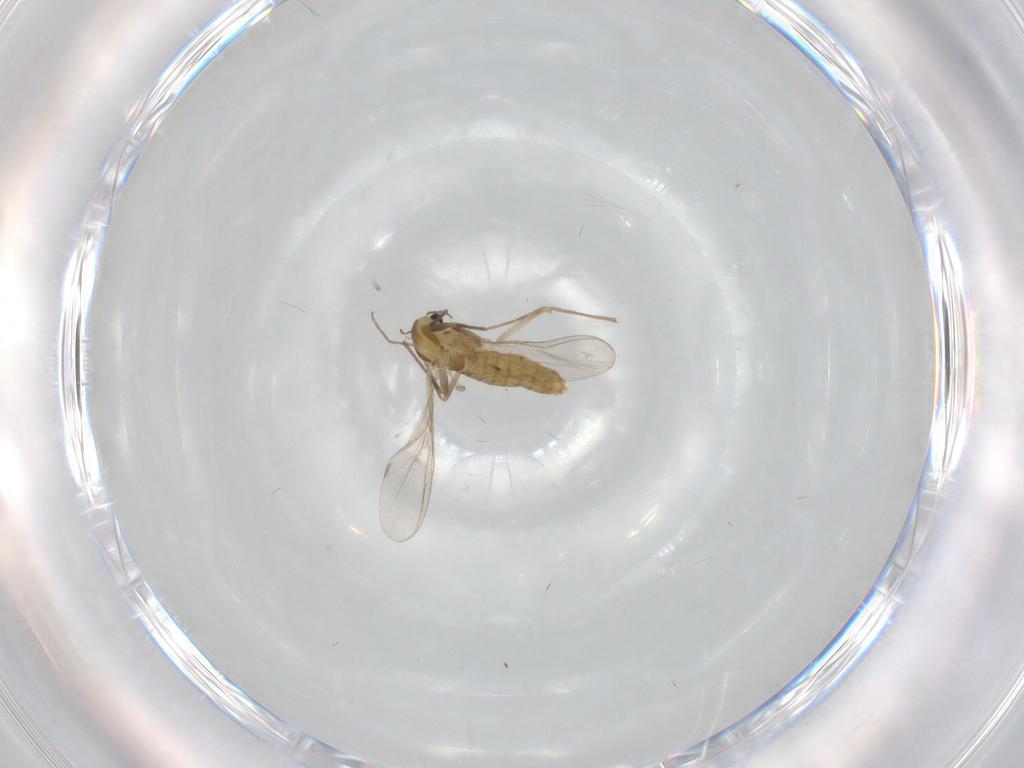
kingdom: Animalia
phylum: Arthropoda
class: Insecta
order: Diptera
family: Chironomidae
